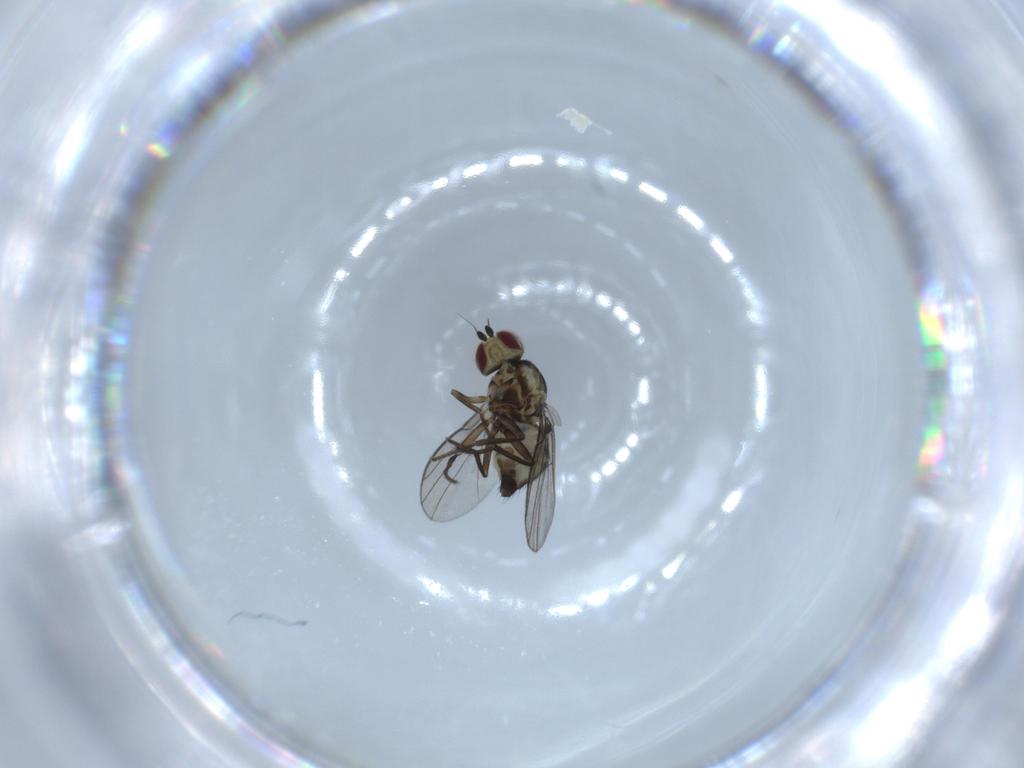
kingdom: Animalia
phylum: Arthropoda
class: Insecta
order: Diptera
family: Agromyzidae
